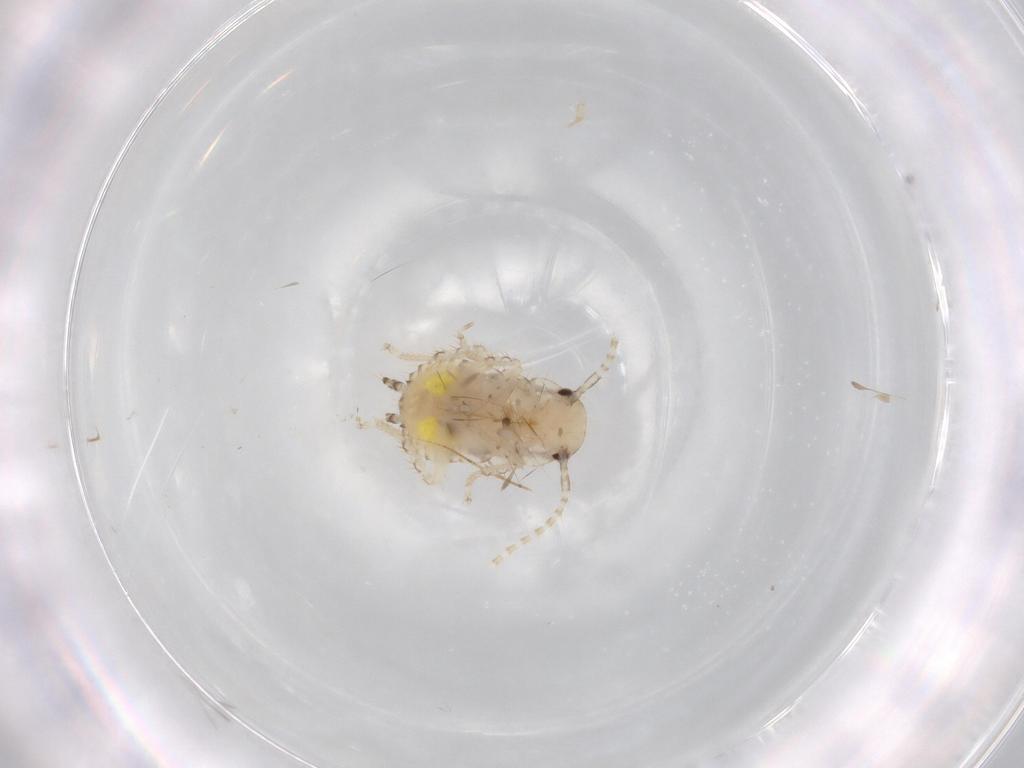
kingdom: Animalia
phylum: Arthropoda
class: Insecta
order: Blattodea
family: Ectobiidae
